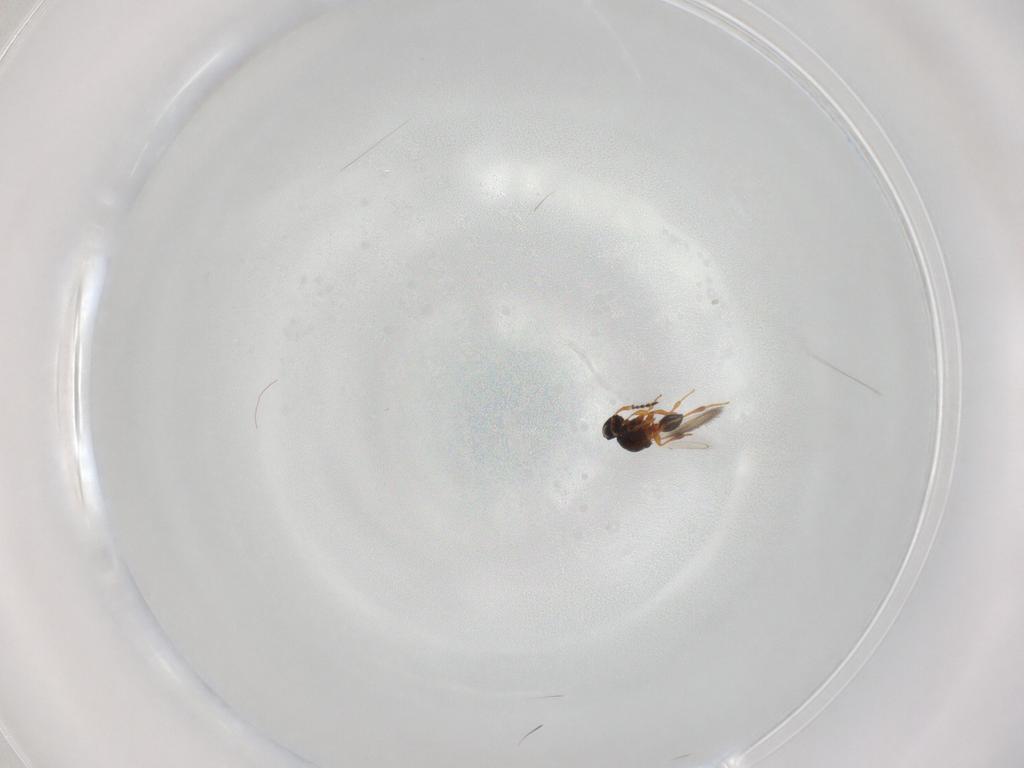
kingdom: Animalia
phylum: Arthropoda
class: Insecta
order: Hymenoptera
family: Platygastridae
